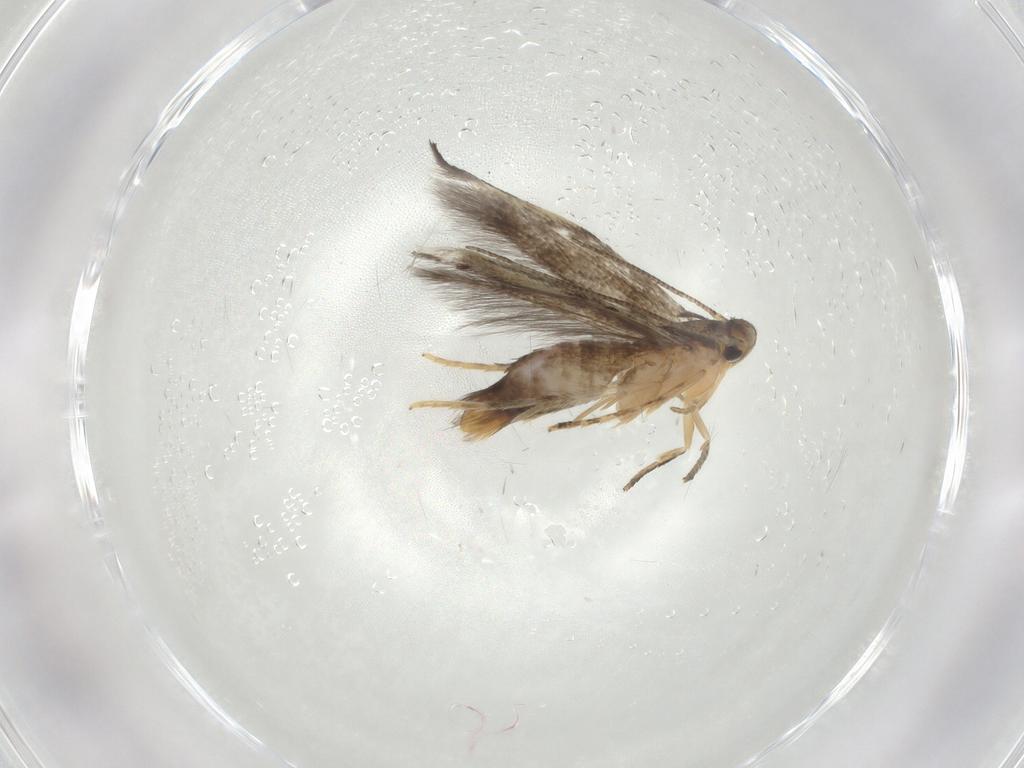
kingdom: Animalia
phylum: Arthropoda
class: Insecta
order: Lepidoptera
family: Elachistidae
